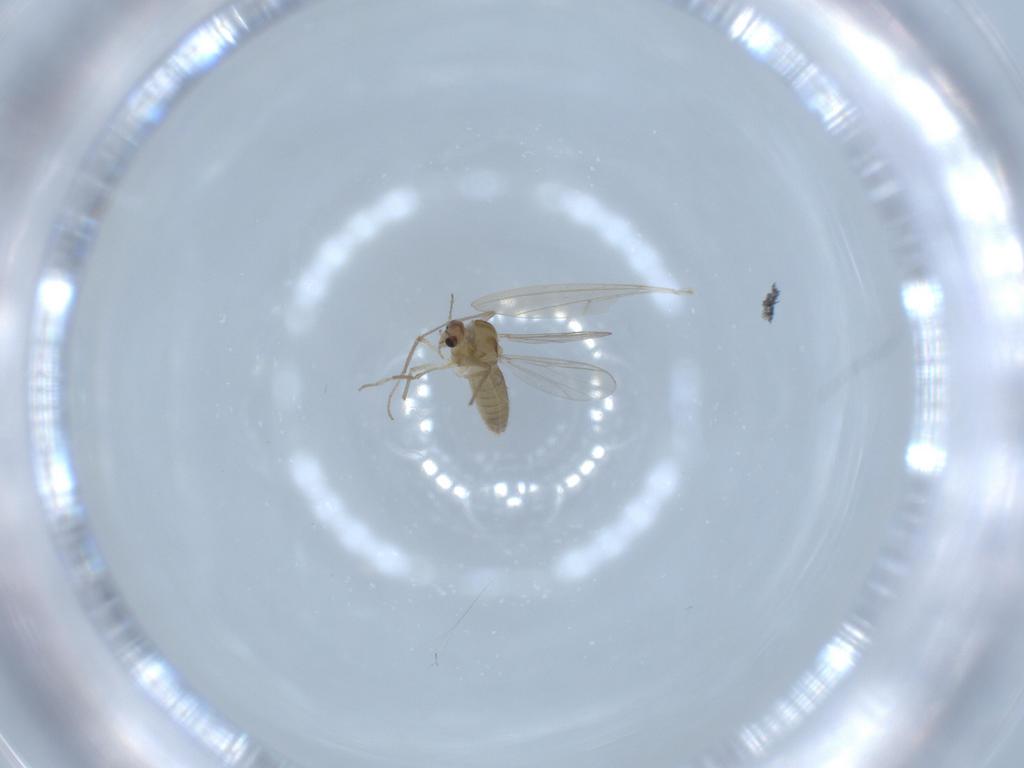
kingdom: Animalia
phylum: Arthropoda
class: Insecta
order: Diptera
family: Chironomidae
